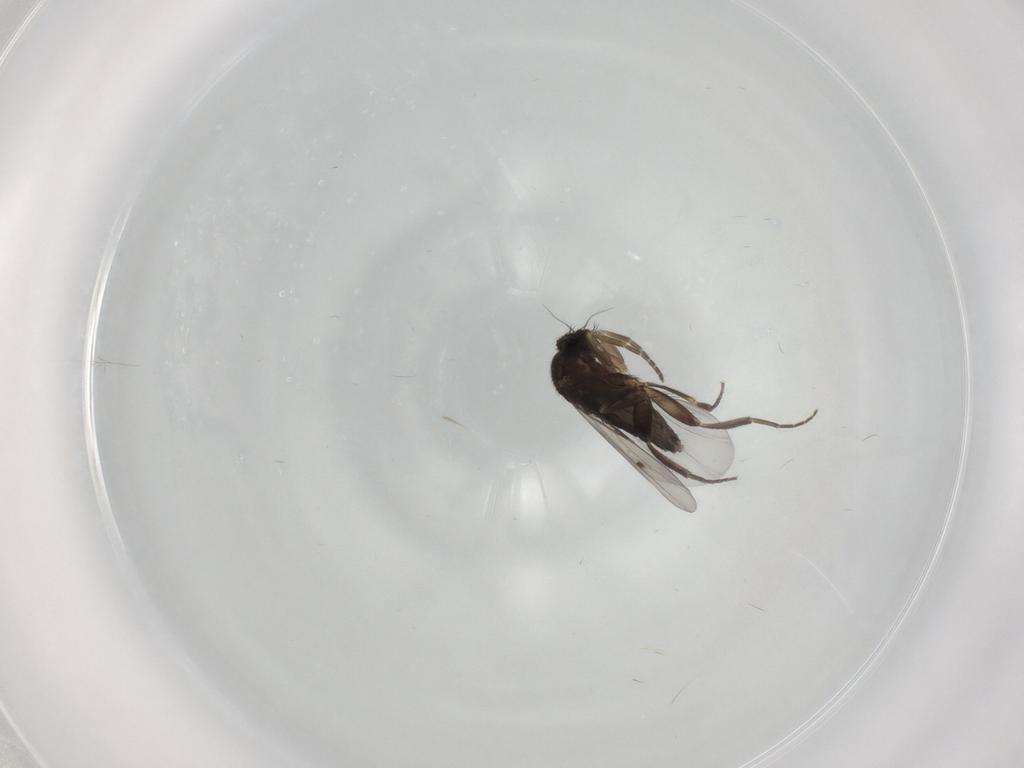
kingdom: Animalia
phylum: Arthropoda
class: Insecta
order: Diptera
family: Phoridae
